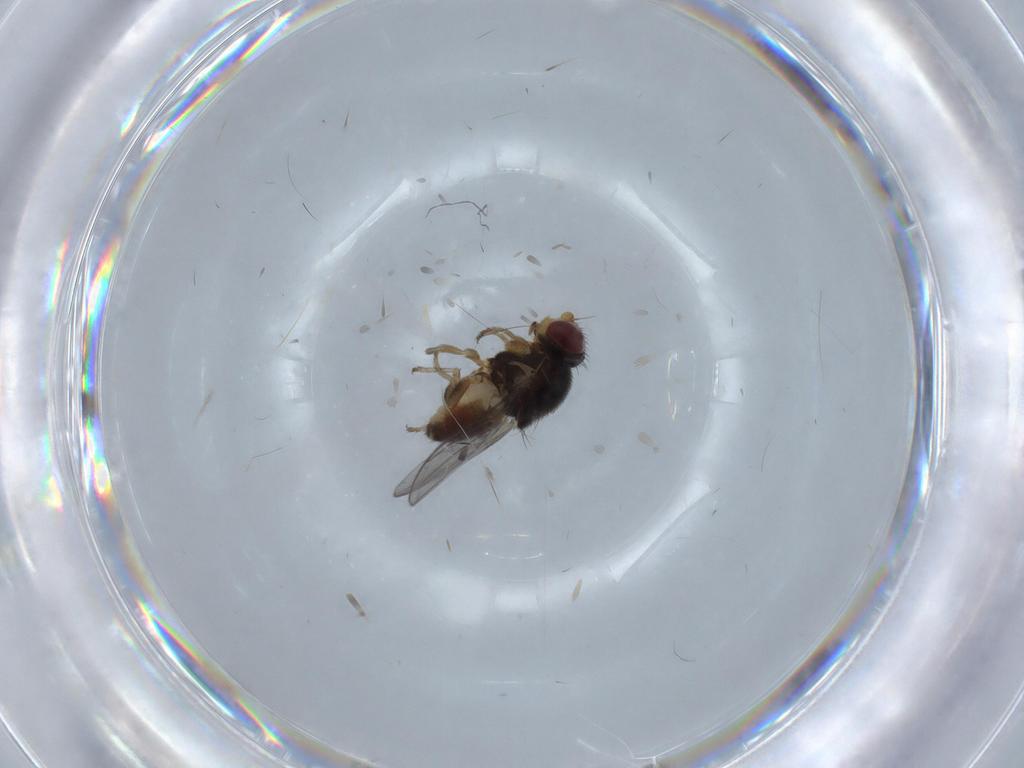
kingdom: Animalia
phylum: Arthropoda
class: Insecta
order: Diptera
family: Chloropidae
